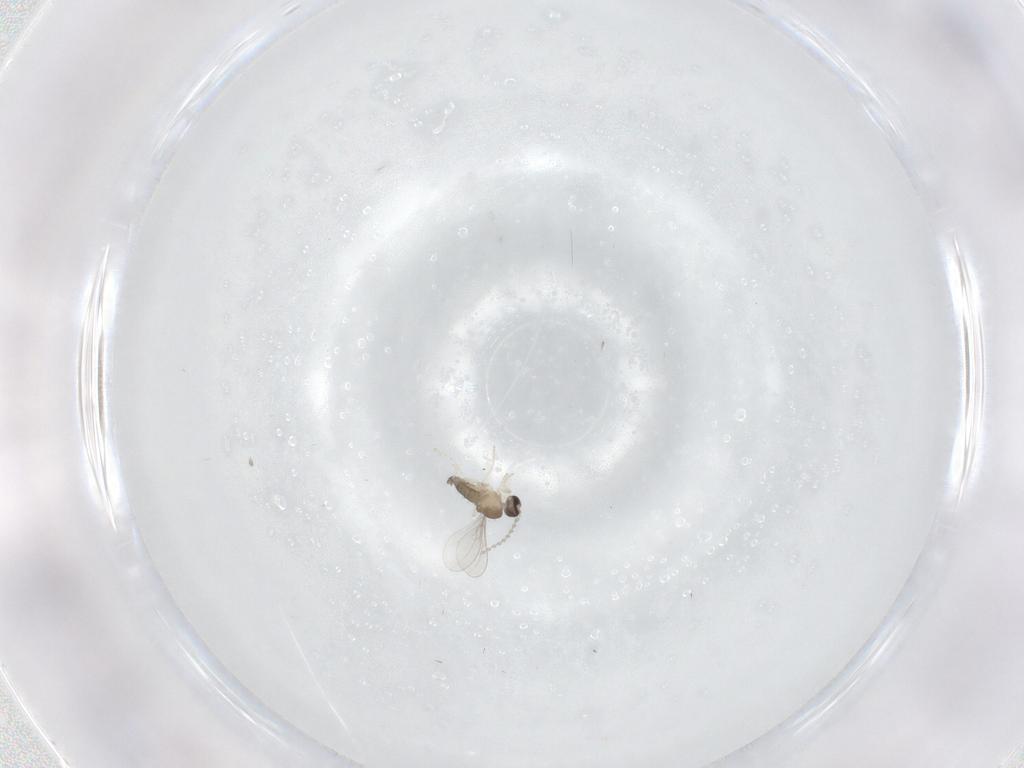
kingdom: Animalia
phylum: Arthropoda
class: Insecta
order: Diptera
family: Cecidomyiidae
